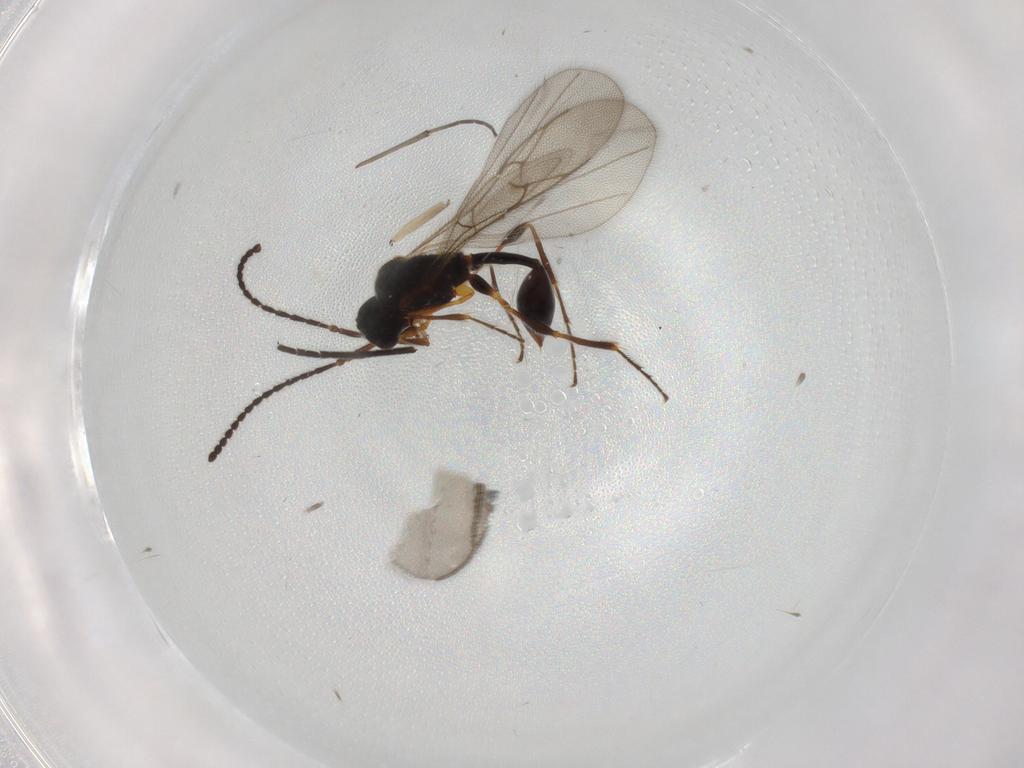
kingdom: Animalia
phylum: Arthropoda
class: Insecta
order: Hymenoptera
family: Diapriidae
